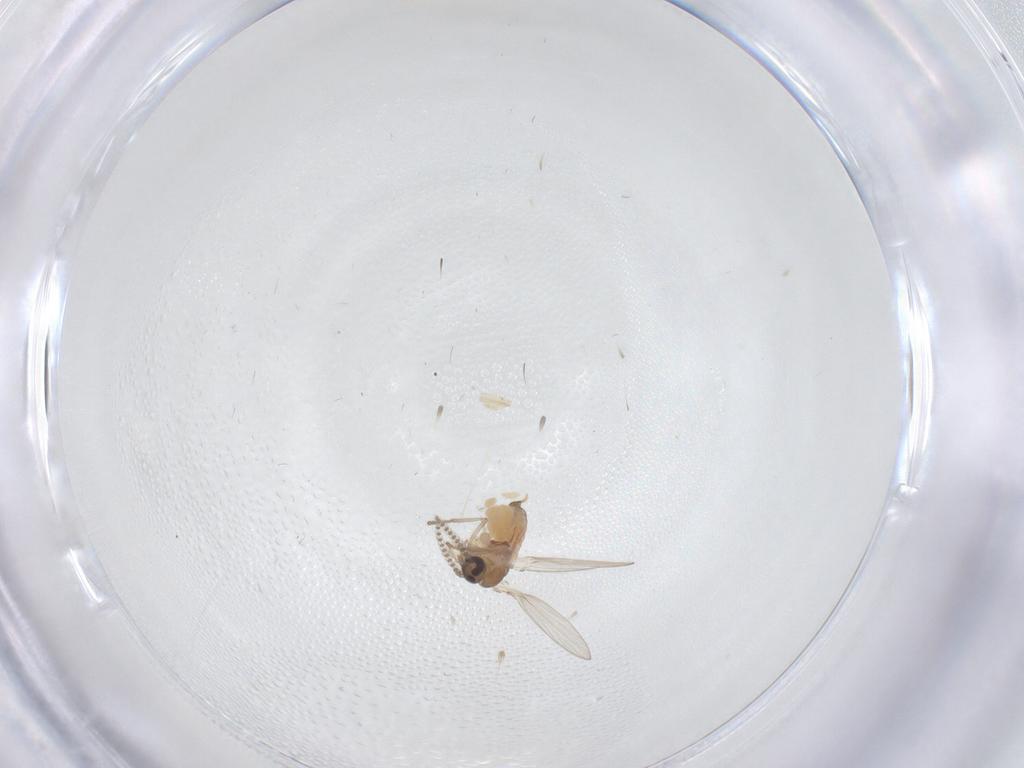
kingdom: Animalia
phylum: Arthropoda
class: Insecta
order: Diptera
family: Psychodidae
